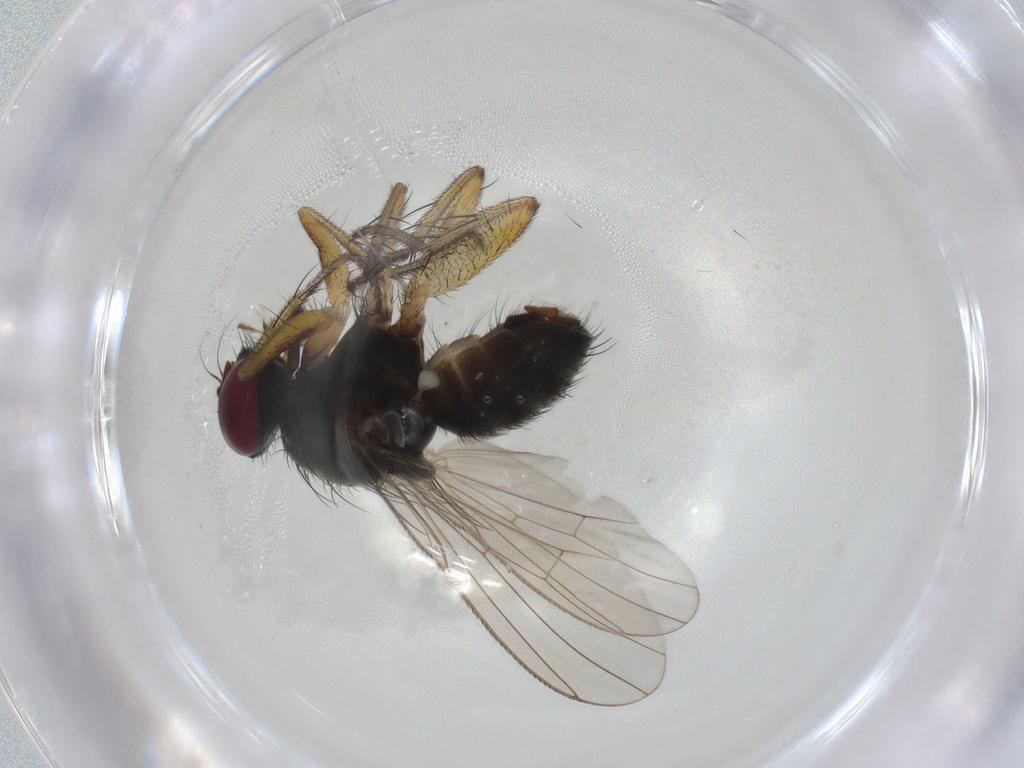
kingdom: Animalia
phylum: Arthropoda
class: Insecta
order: Diptera
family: Muscidae
